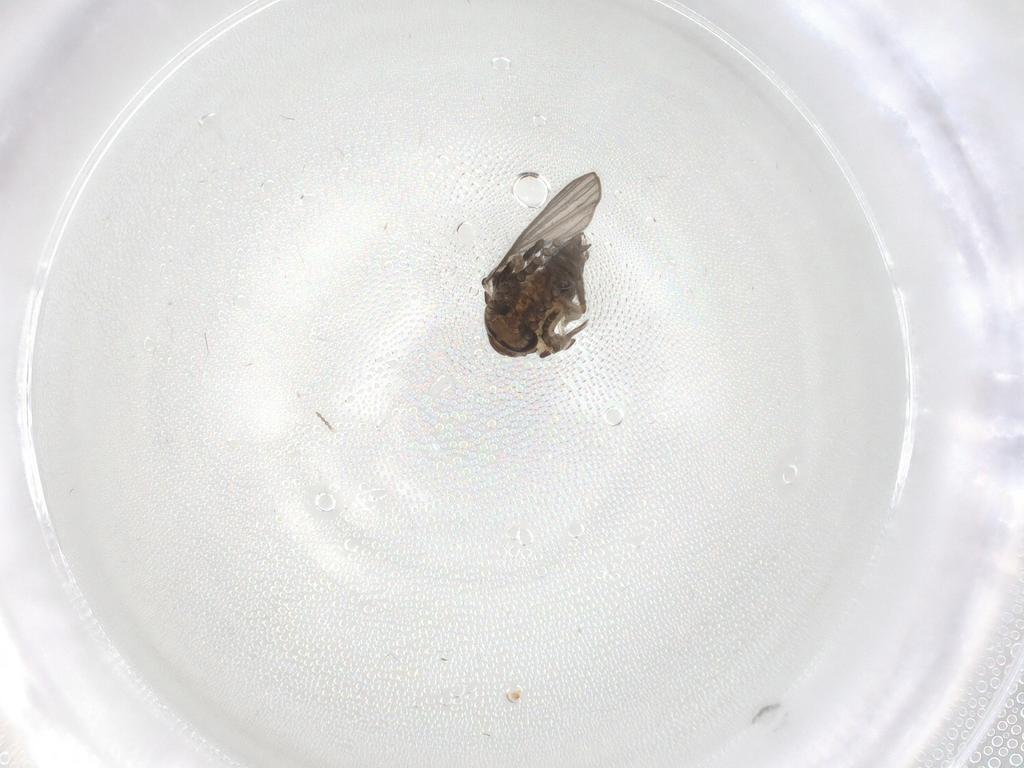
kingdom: Animalia
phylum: Arthropoda
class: Insecta
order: Diptera
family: Psychodidae
